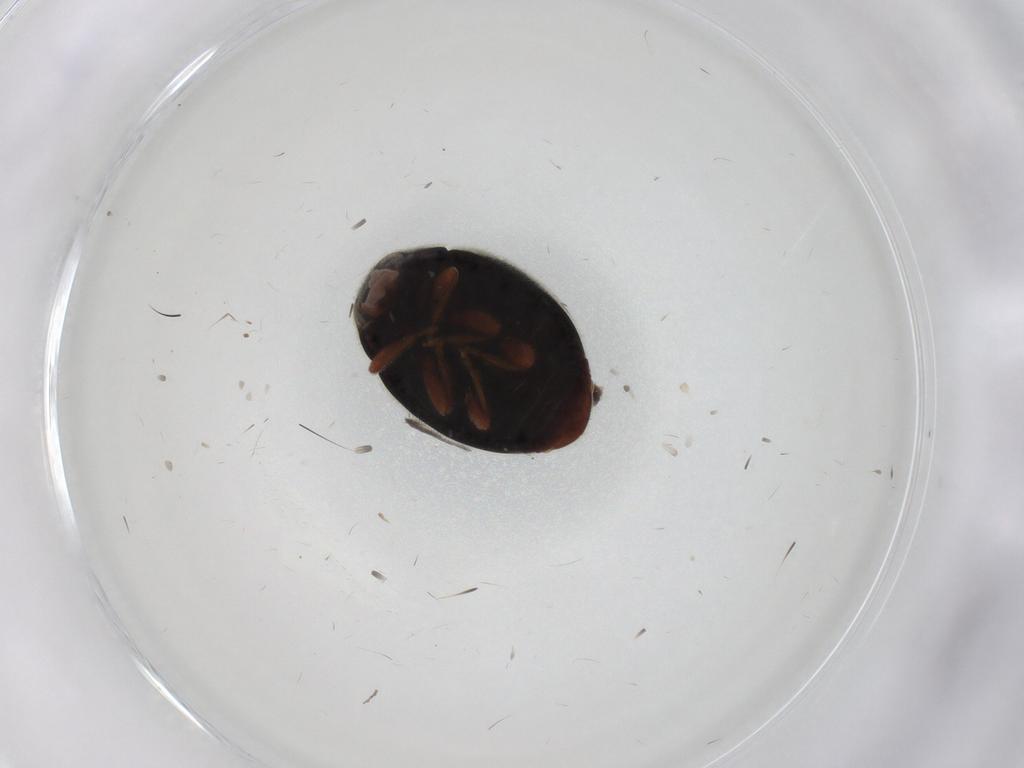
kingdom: Animalia
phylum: Arthropoda
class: Insecta
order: Coleoptera
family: Coccinellidae
